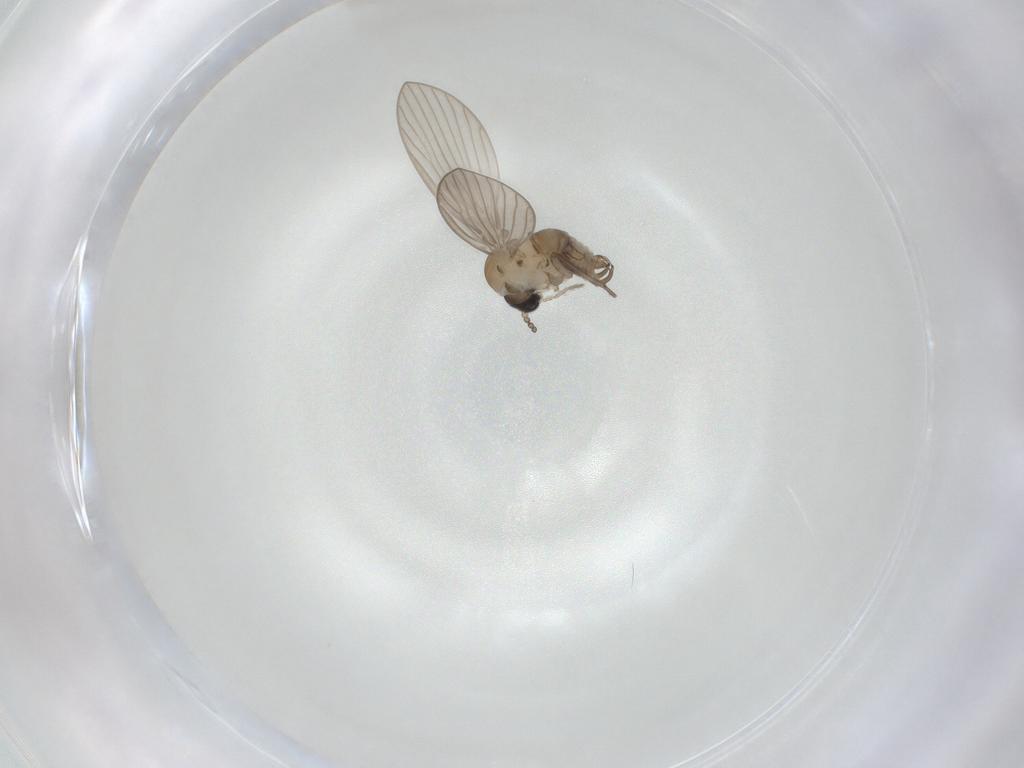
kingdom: Animalia
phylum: Arthropoda
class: Insecta
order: Diptera
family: Psychodidae
